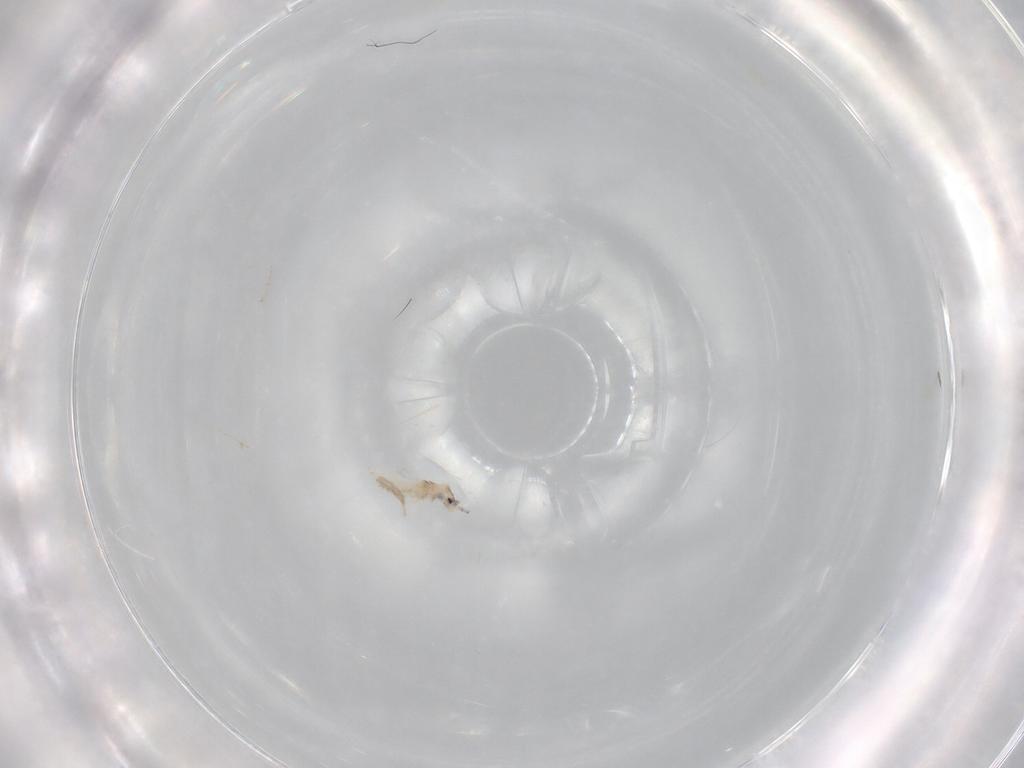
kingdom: Animalia
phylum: Arthropoda
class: Collembola
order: Entomobryomorpha
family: Entomobryidae
